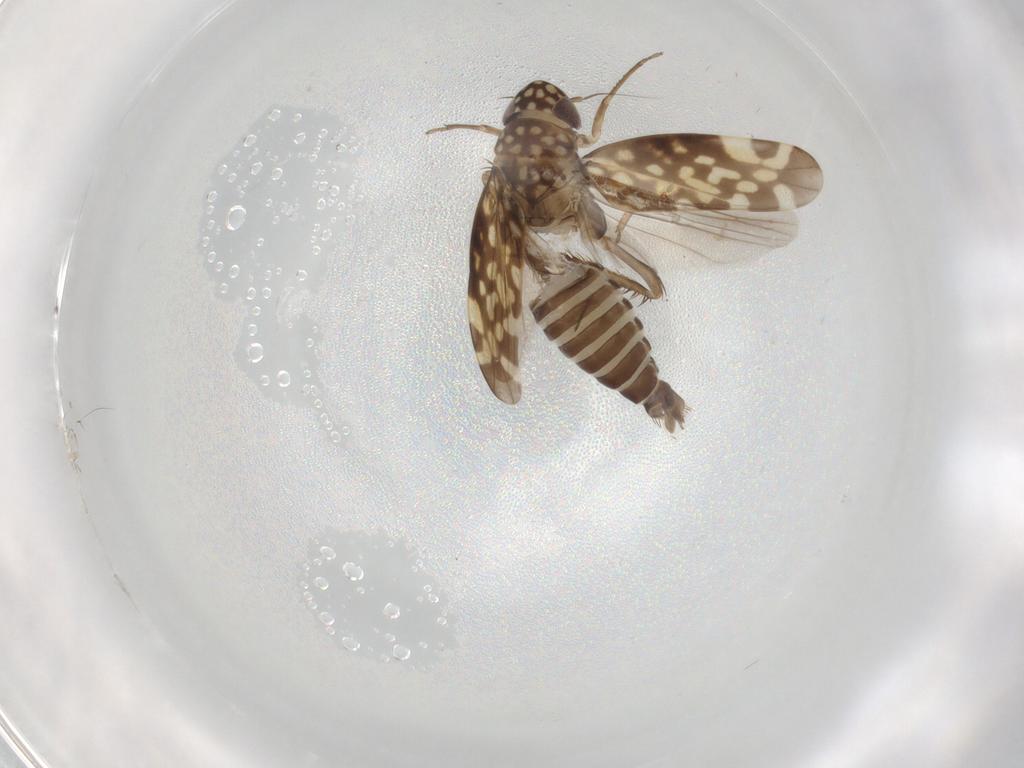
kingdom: Animalia
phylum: Arthropoda
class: Insecta
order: Hemiptera
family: Cicadellidae
